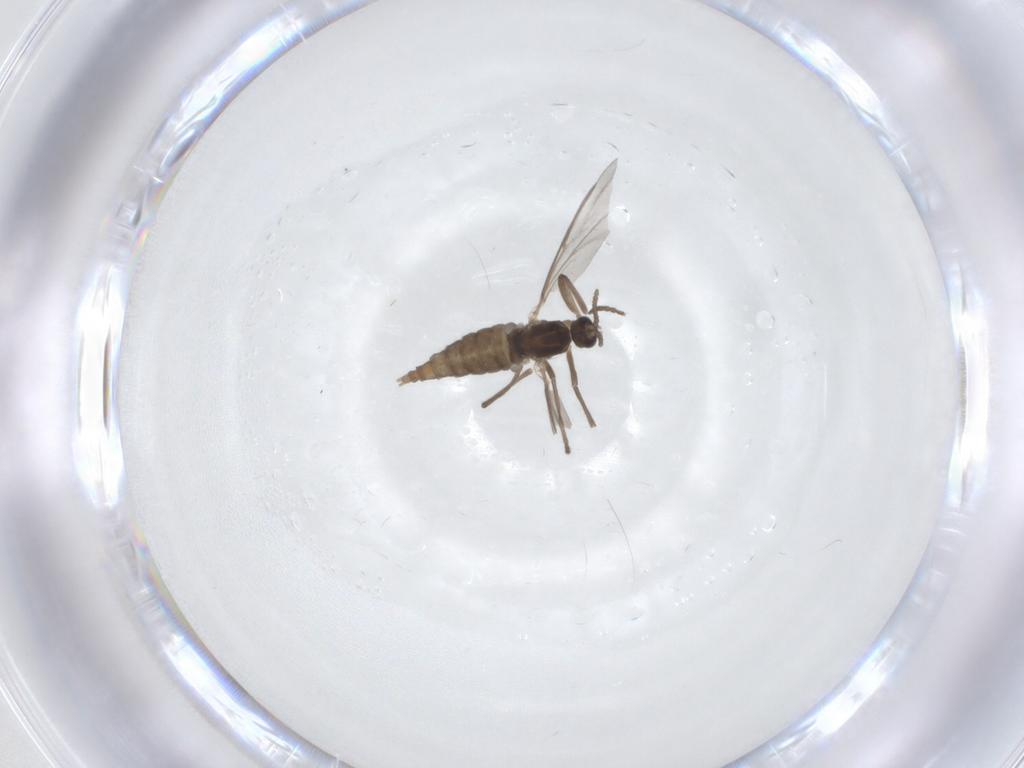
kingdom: Animalia
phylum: Arthropoda
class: Insecta
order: Diptera
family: Cecidomyiidae
